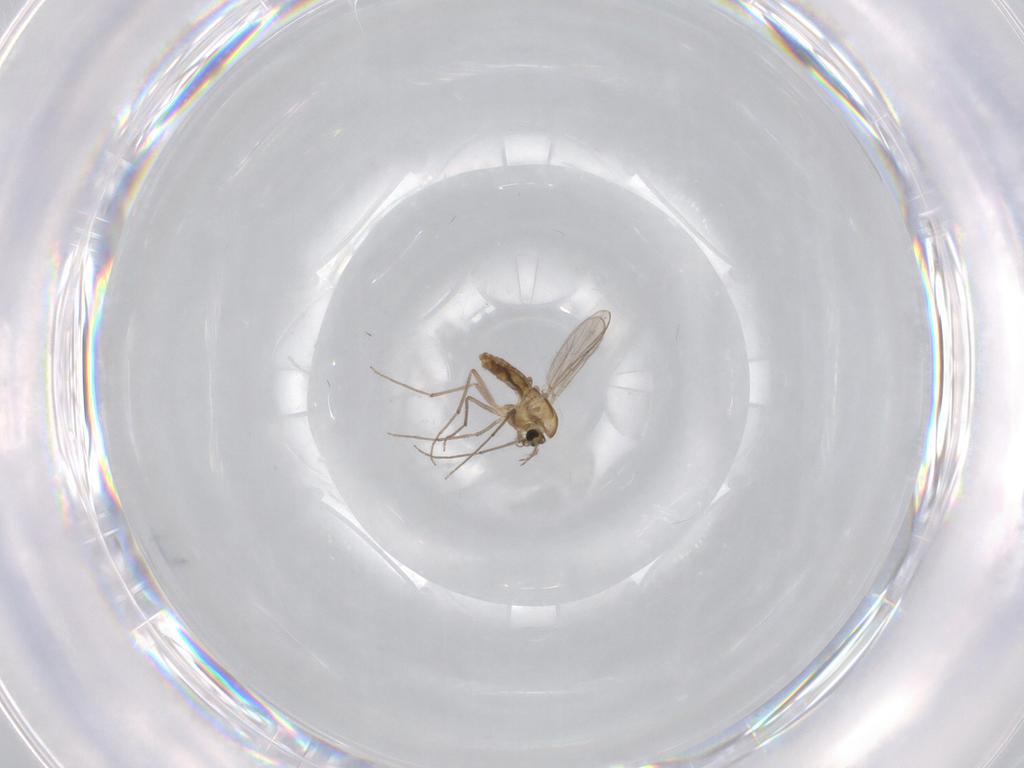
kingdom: Animalia
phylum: Arthropoda
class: Insecta
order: Diptera
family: Chironomidae
